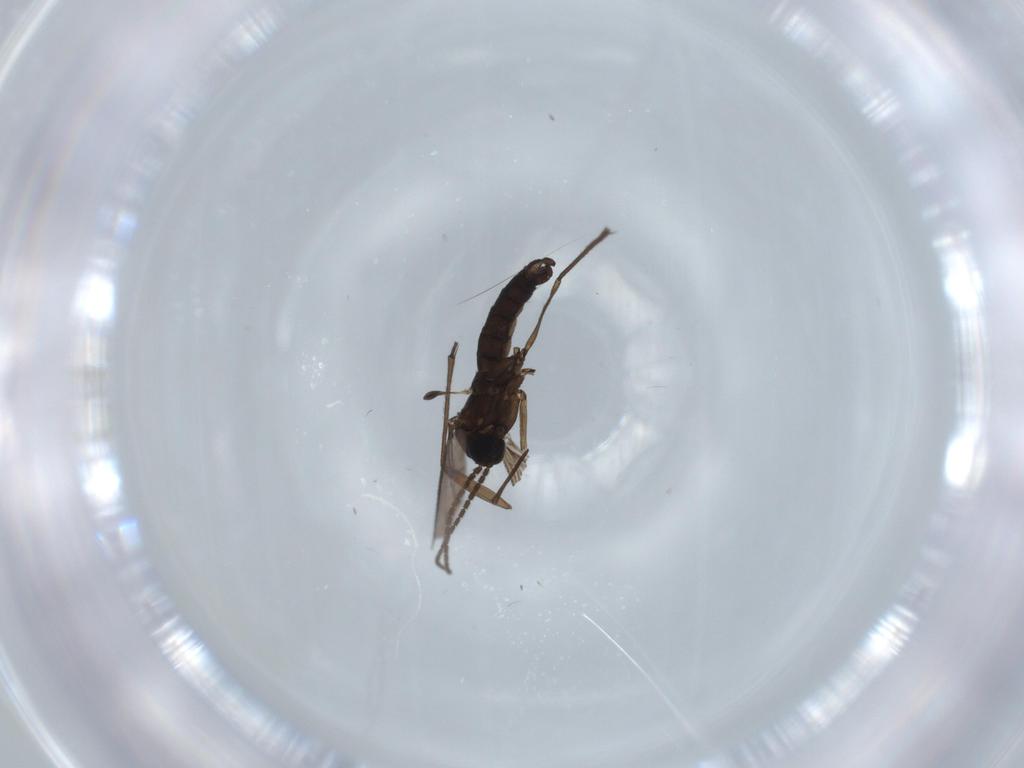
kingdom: Animalia
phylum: Arthropoda
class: Insecta
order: Diptera
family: Sciaridae
